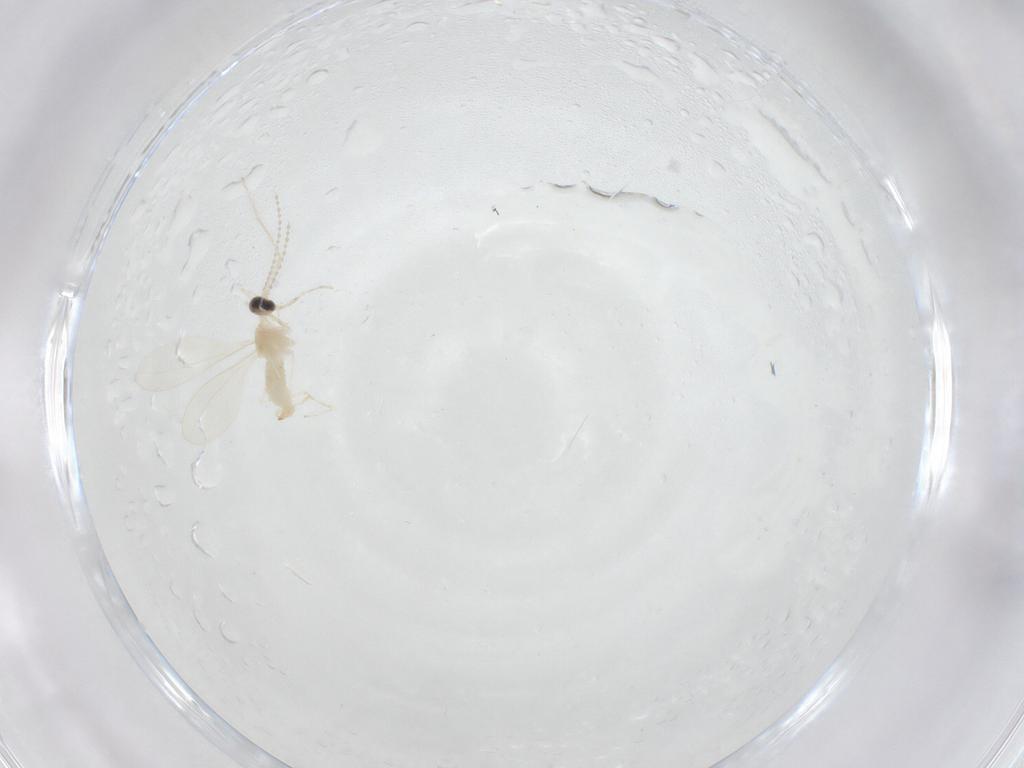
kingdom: Animalia
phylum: Arthropoda
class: Insecta
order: Diptera
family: Cecidomyiidae
